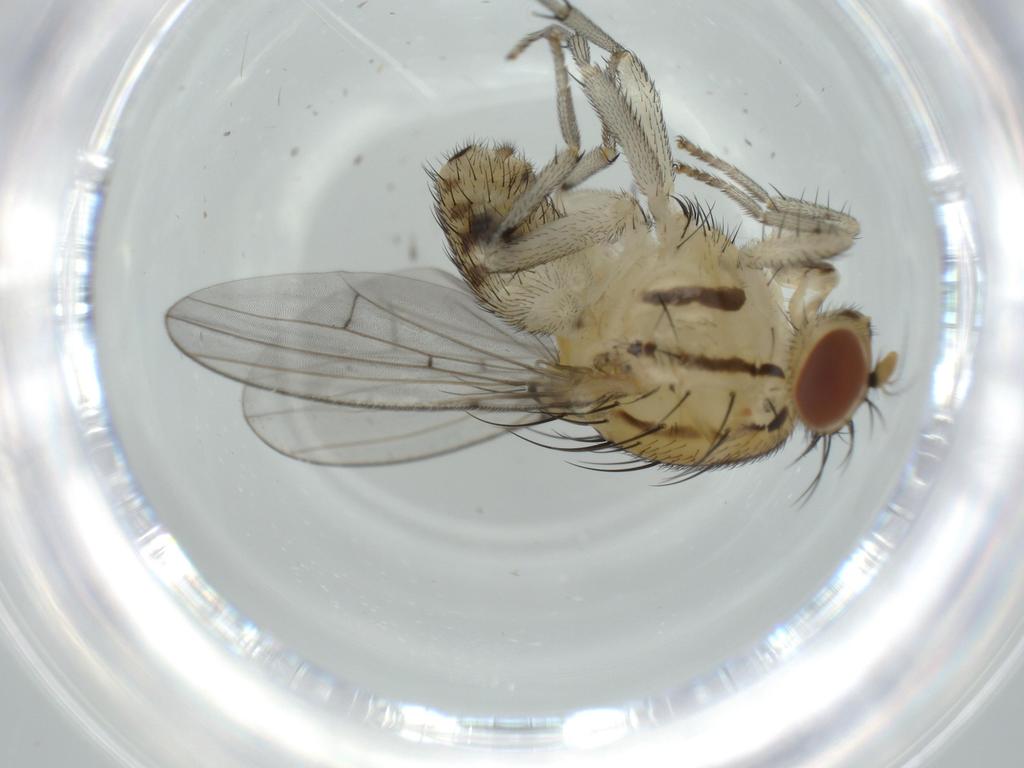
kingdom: Animalia
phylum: Arthropoda
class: Insecta
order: Diptera
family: Lauxaniidae
